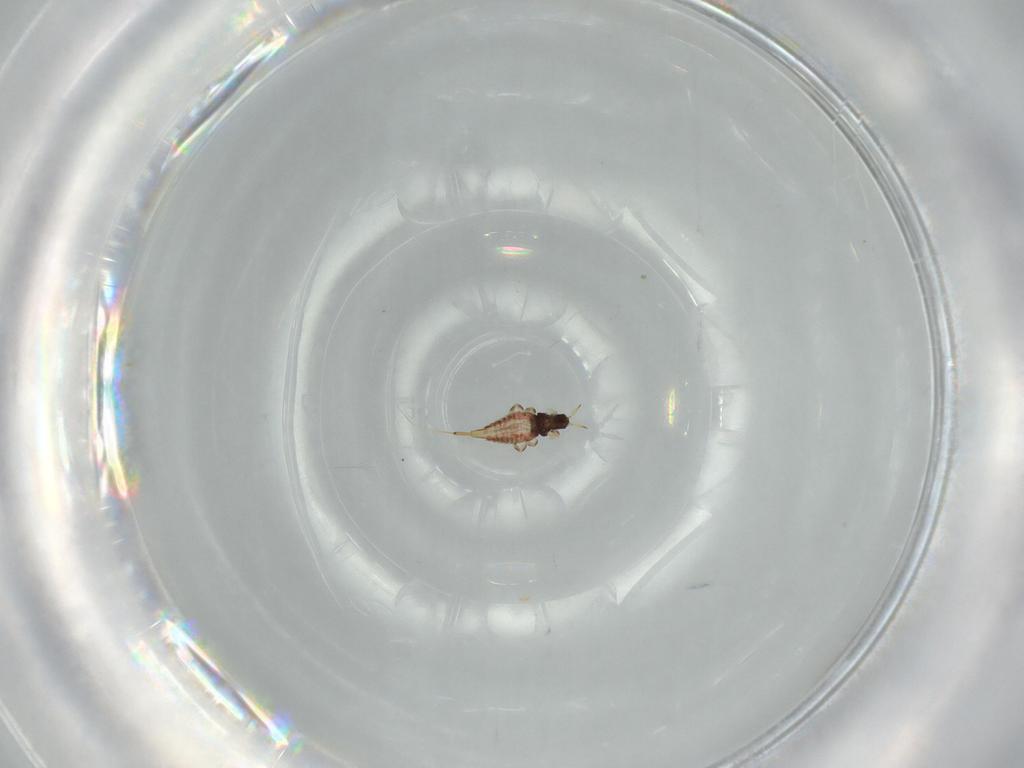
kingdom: Animalia
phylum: Arthropoda
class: Insecta
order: Thysanoptera
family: Phlaeothripidae
